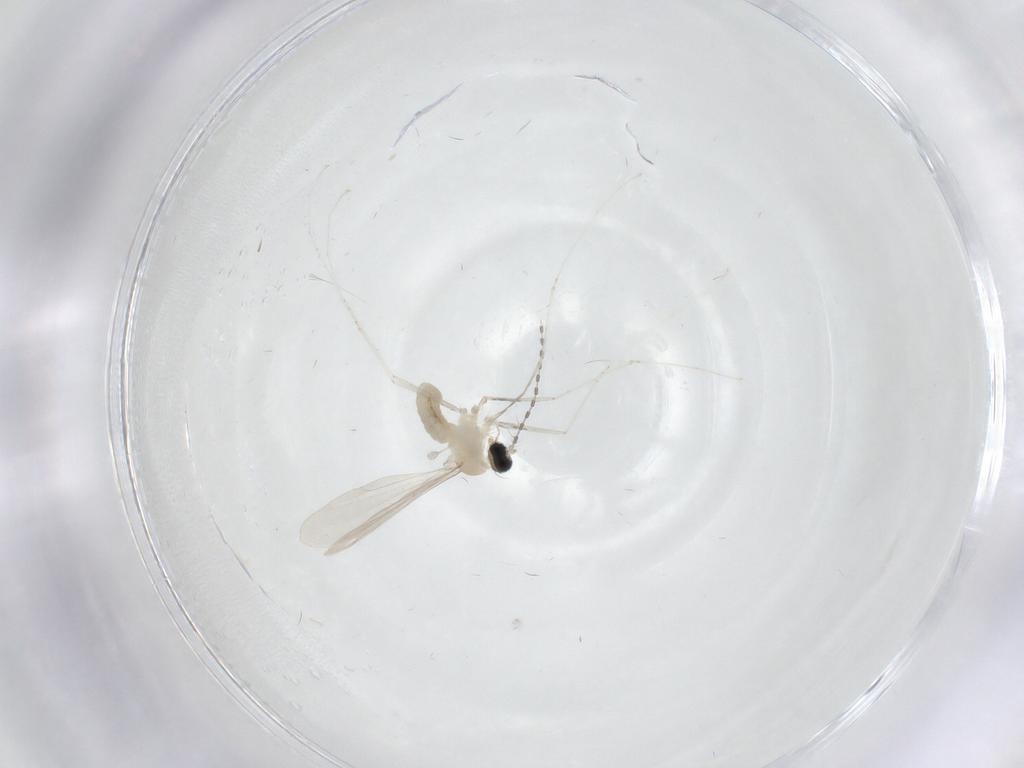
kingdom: Animalia
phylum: Arthropoda
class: Insecta
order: Diptera
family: Cecidomyiidae
